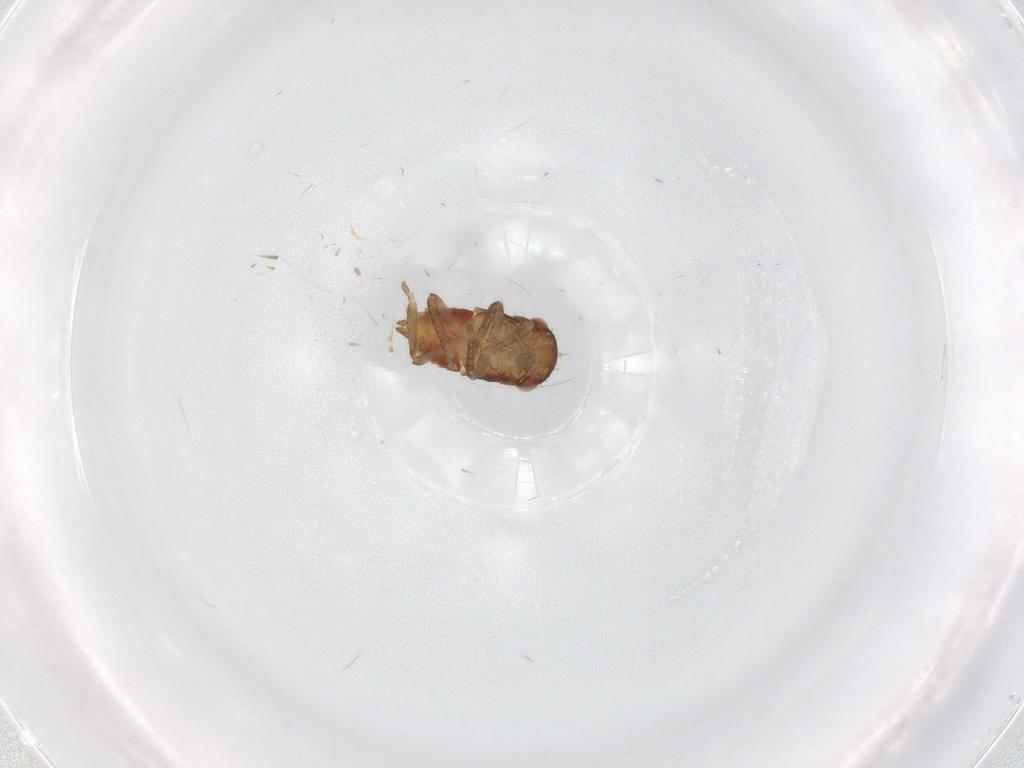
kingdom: Animalia
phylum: Arthropoda
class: Insecta
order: Hemiptera
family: Cicadellidae
